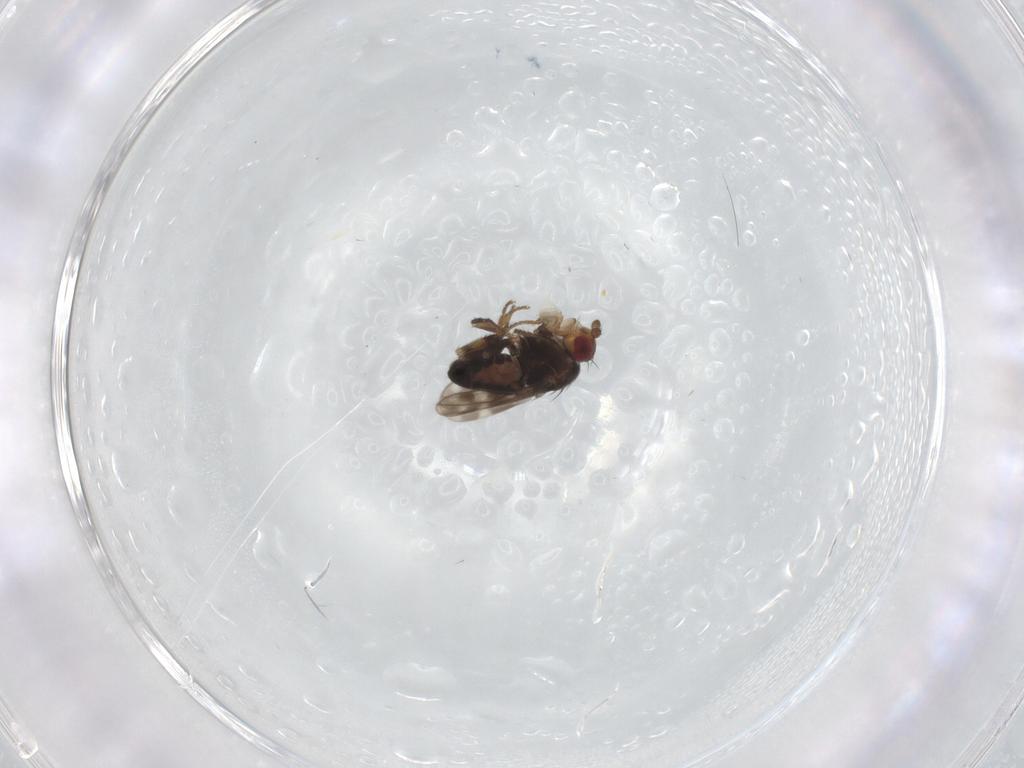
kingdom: Animalia
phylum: Arthropoda
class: Insecta
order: Diptera
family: Sphaeroceridae
